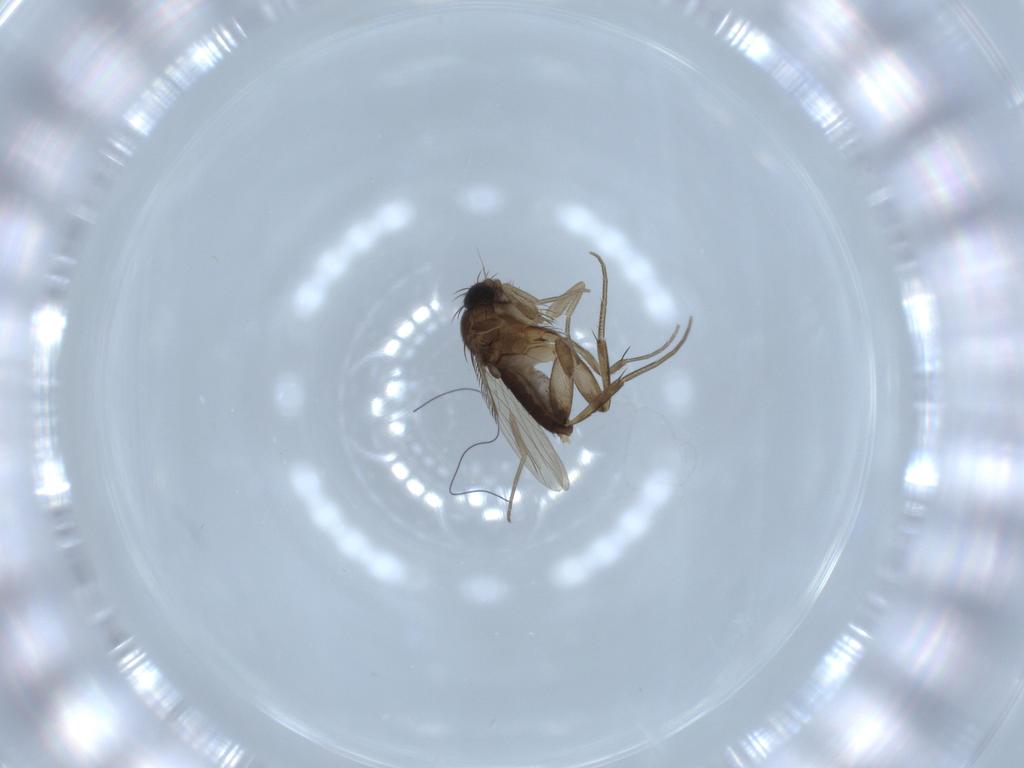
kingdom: Animalia
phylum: Arthropoda
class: Insecta
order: Diptera
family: Phoridae
